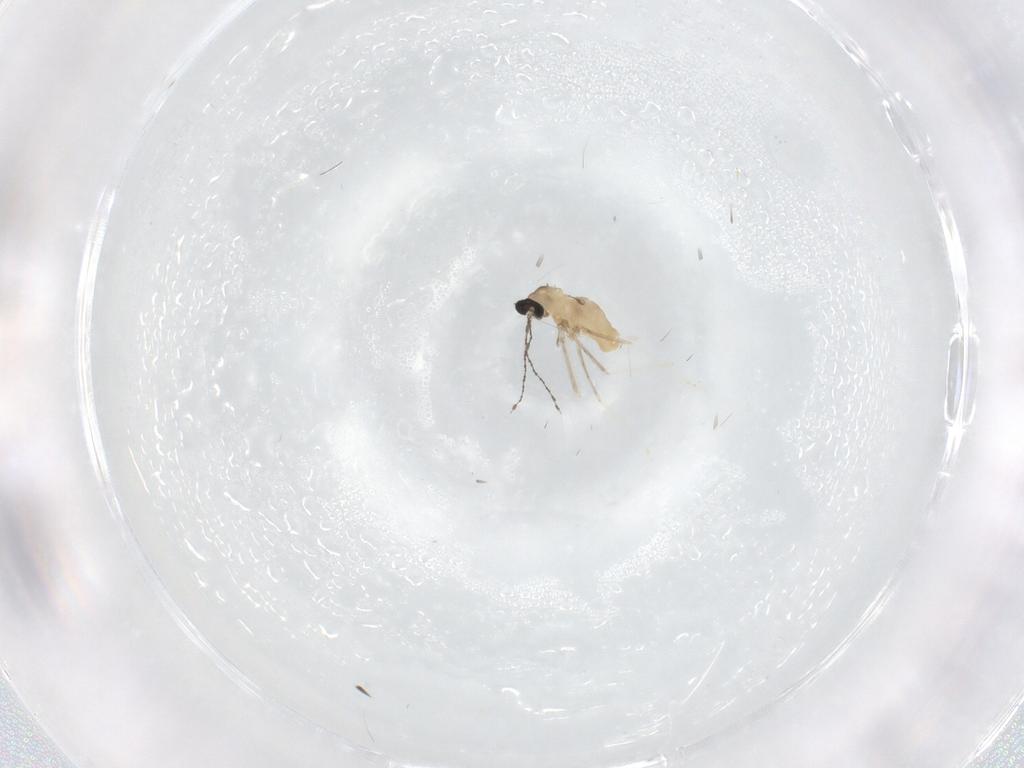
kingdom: Animalia
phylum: Arthropoda
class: Insecta
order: Diptera
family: Cecidomyiidae
